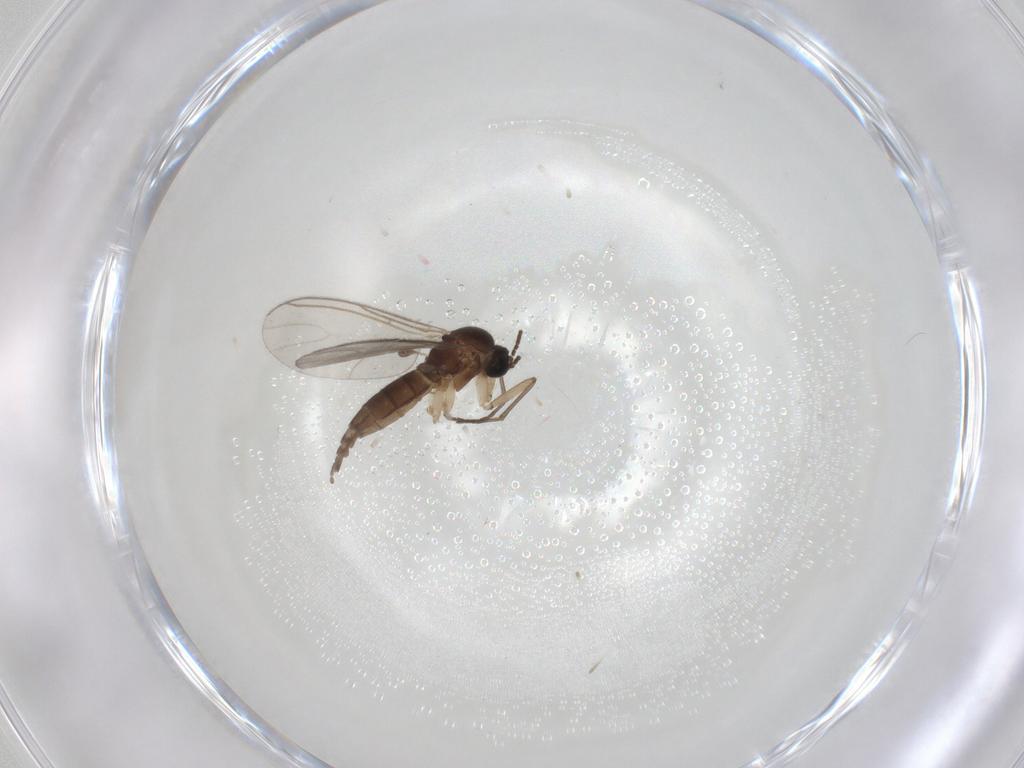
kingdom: Animalia
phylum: Arthropoda
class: Insecta
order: Diptera
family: Sciaridae
